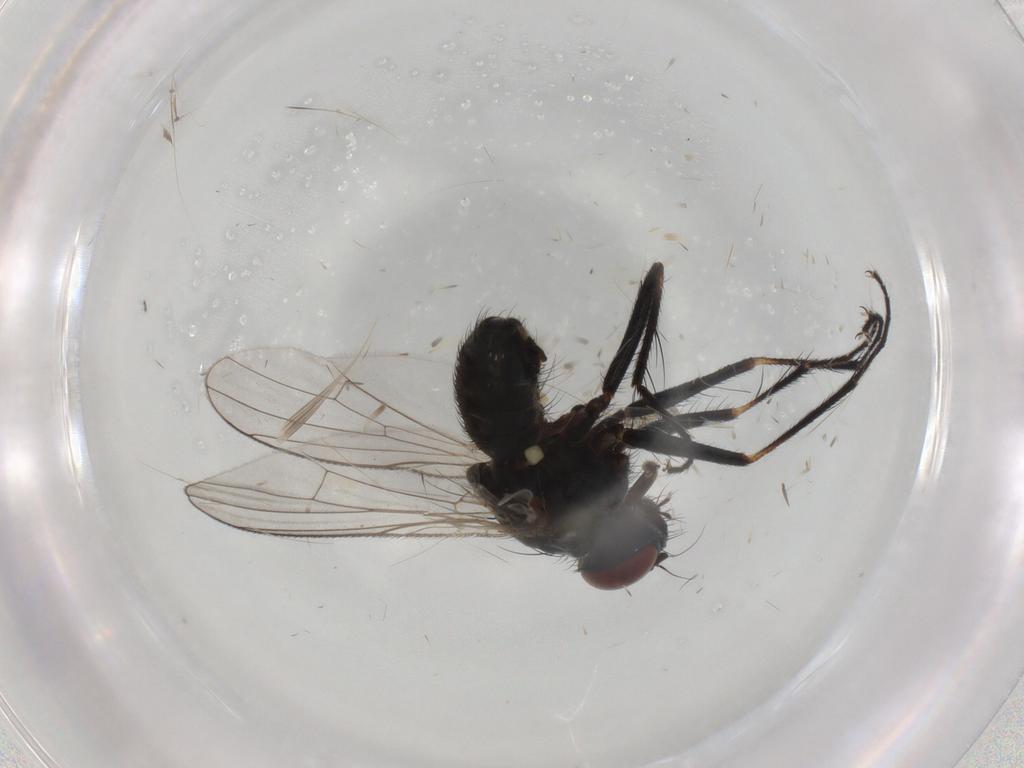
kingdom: Animalia
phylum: Arthropoda
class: Insecta
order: Diptera
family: Muscidae
